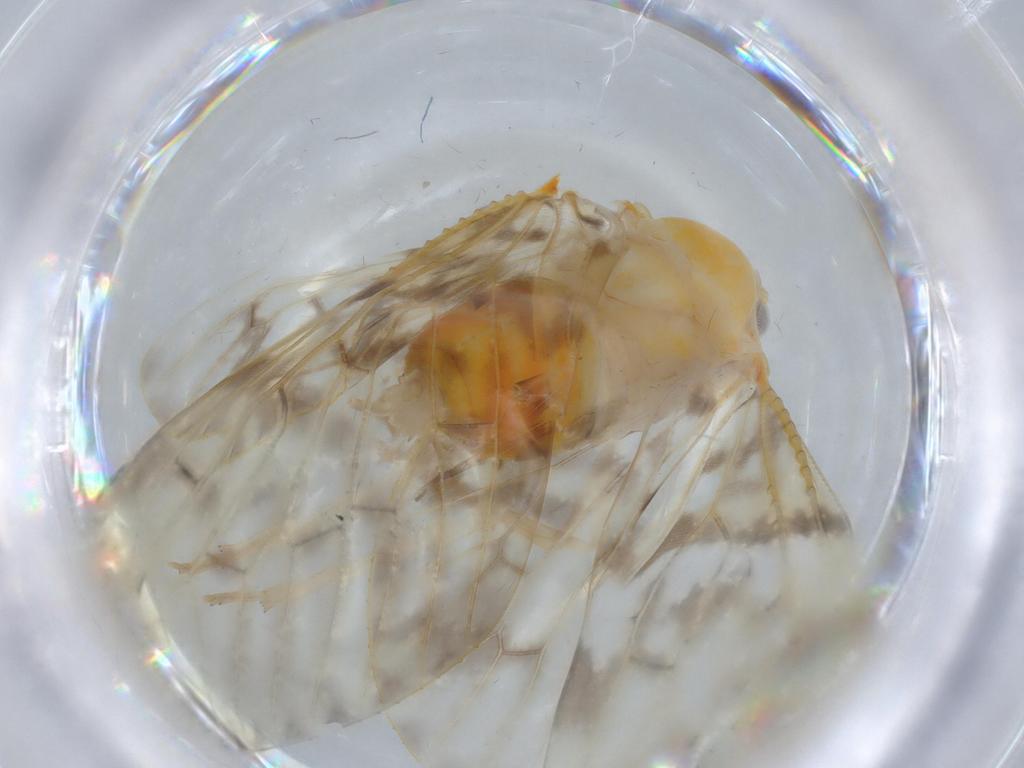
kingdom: Animalia
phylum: Arthropoda
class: Insecta
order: Hemiptera
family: Derbidae
